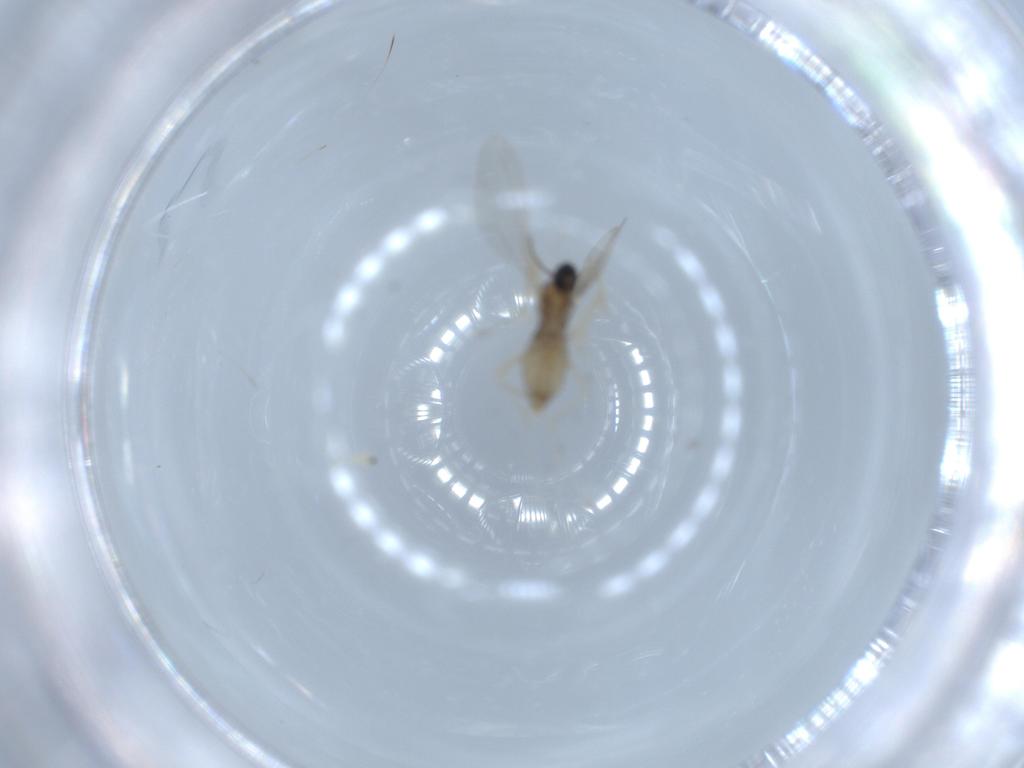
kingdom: Animalia
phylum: Arthropoda
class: Insecta
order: Diptera
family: Cecidomyiidae
